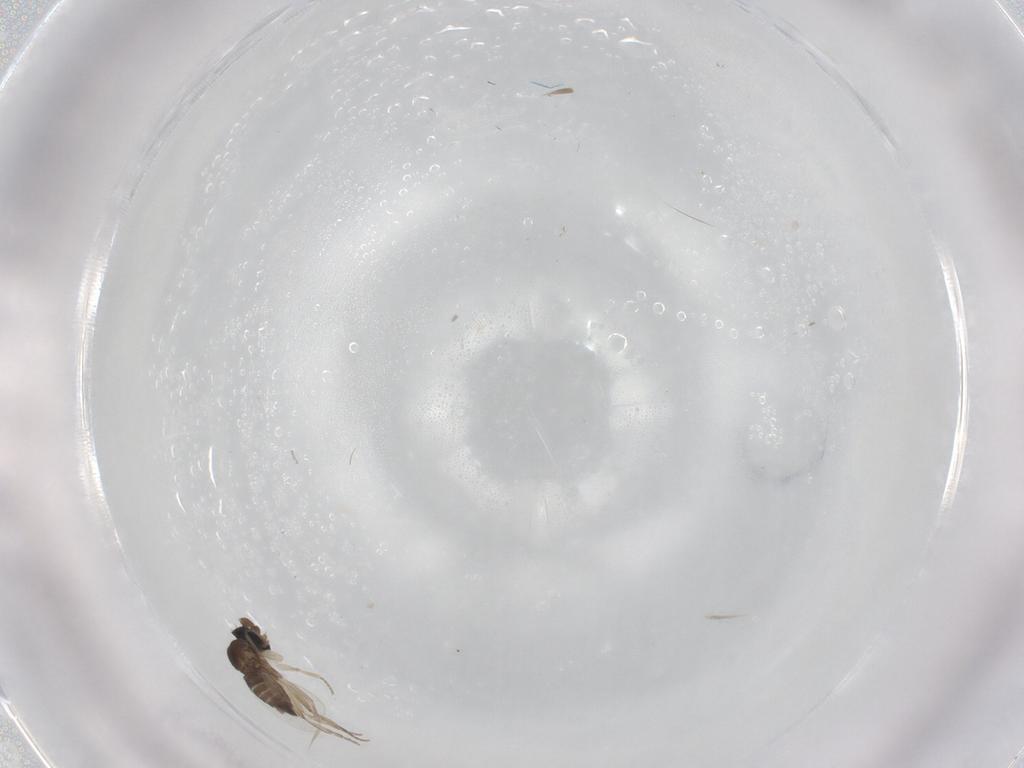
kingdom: Animalia
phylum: Arthropoda
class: Insecta
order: Diptera
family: Phoridae
